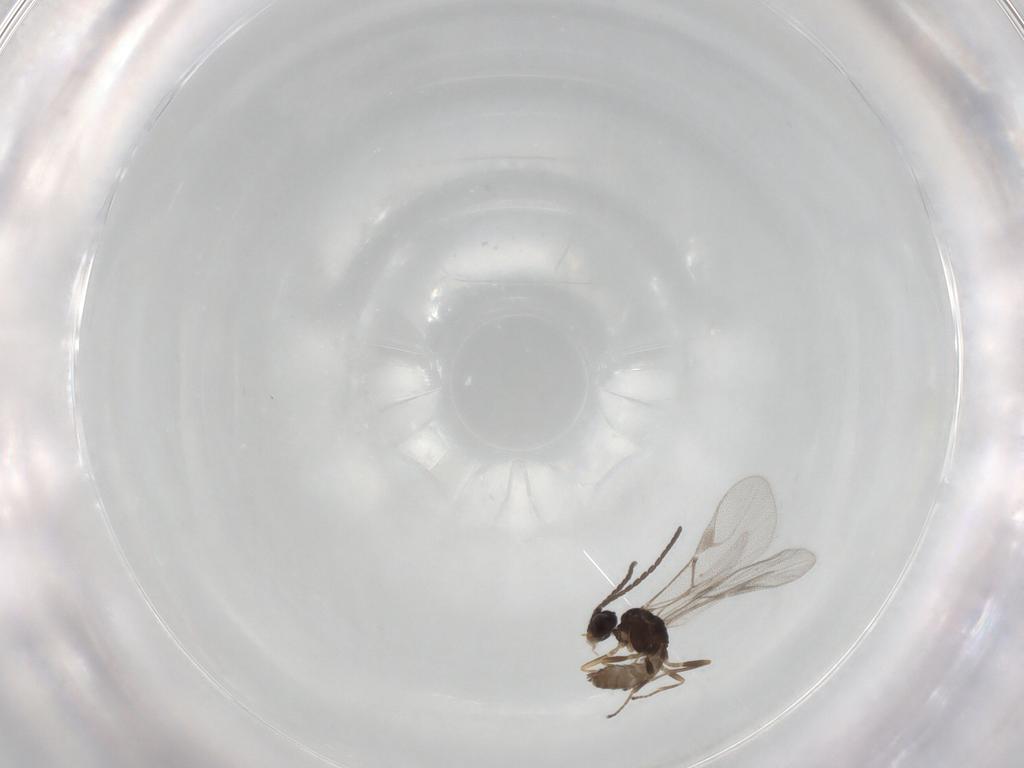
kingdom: Animalia
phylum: Arthropoda
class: Insecta
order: Hymenoptera
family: Braconidae
